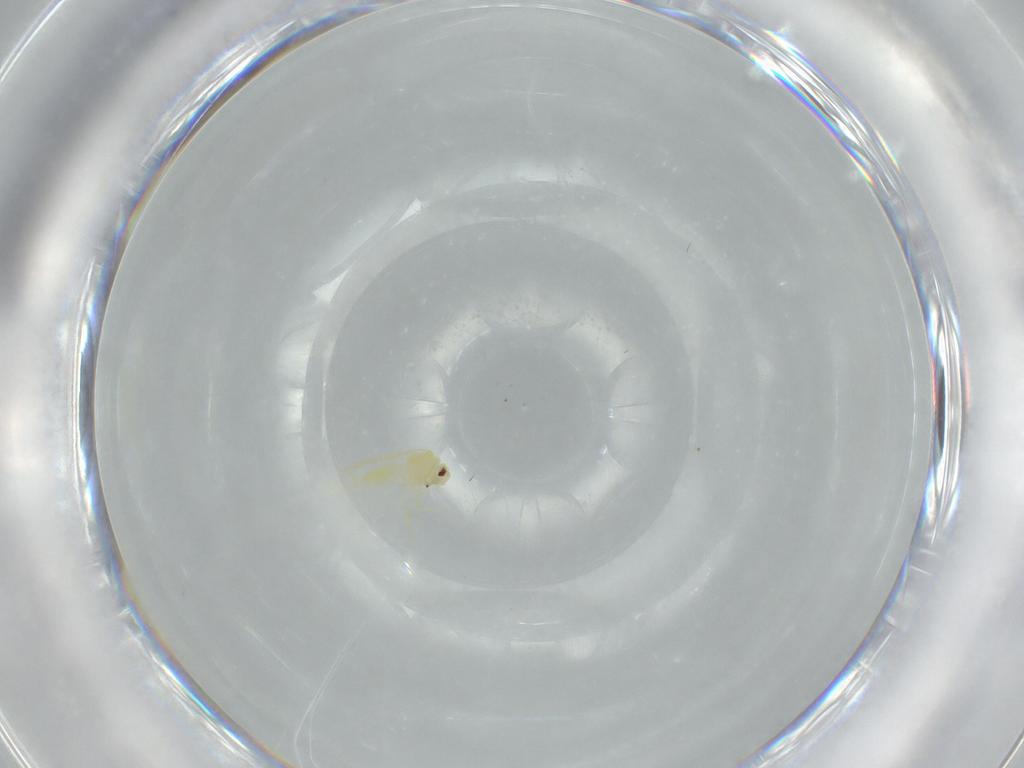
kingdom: Animalia
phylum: Arthropoda
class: Insecta
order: Hemiptera
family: Aleyrodidae
